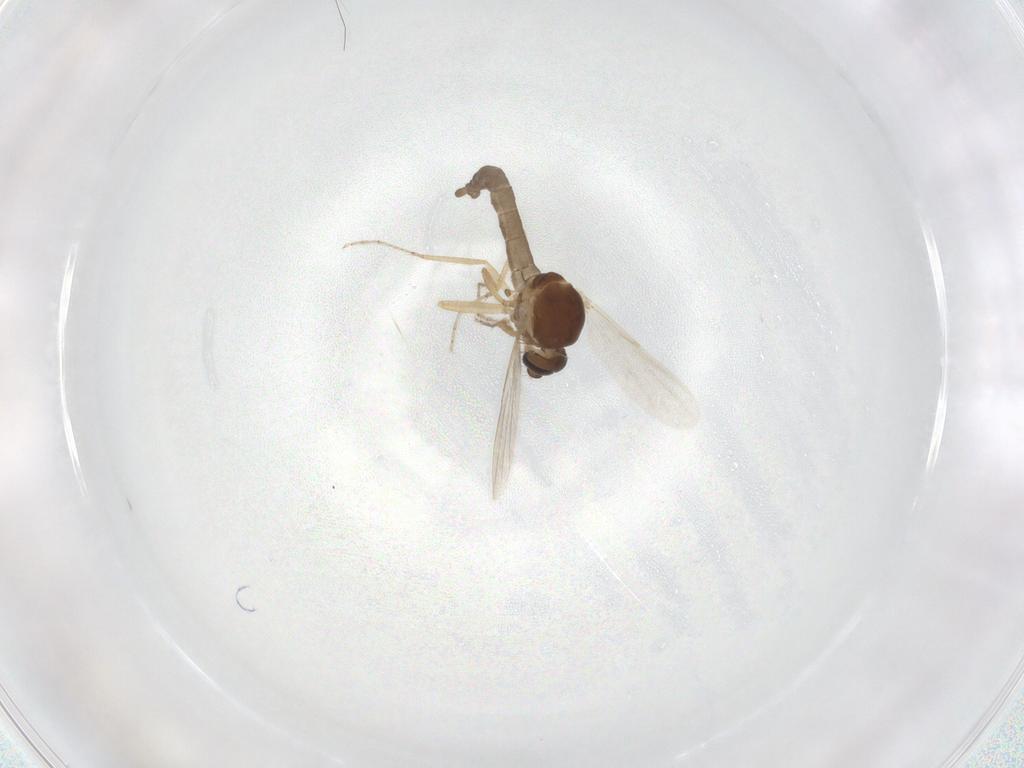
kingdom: Animalia
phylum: Arthropoda
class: Insecta
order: Diptera
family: Ceratopogonidae
